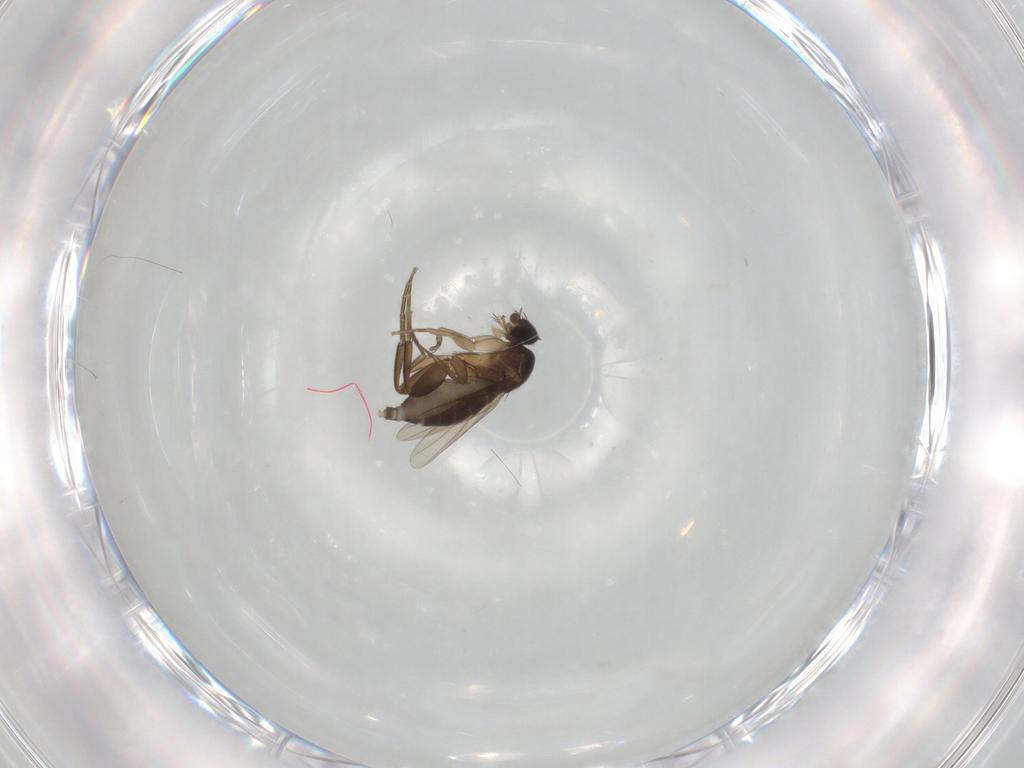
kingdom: Animalia
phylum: Arthropoda
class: Insecta
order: Diptera
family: Phoridae
